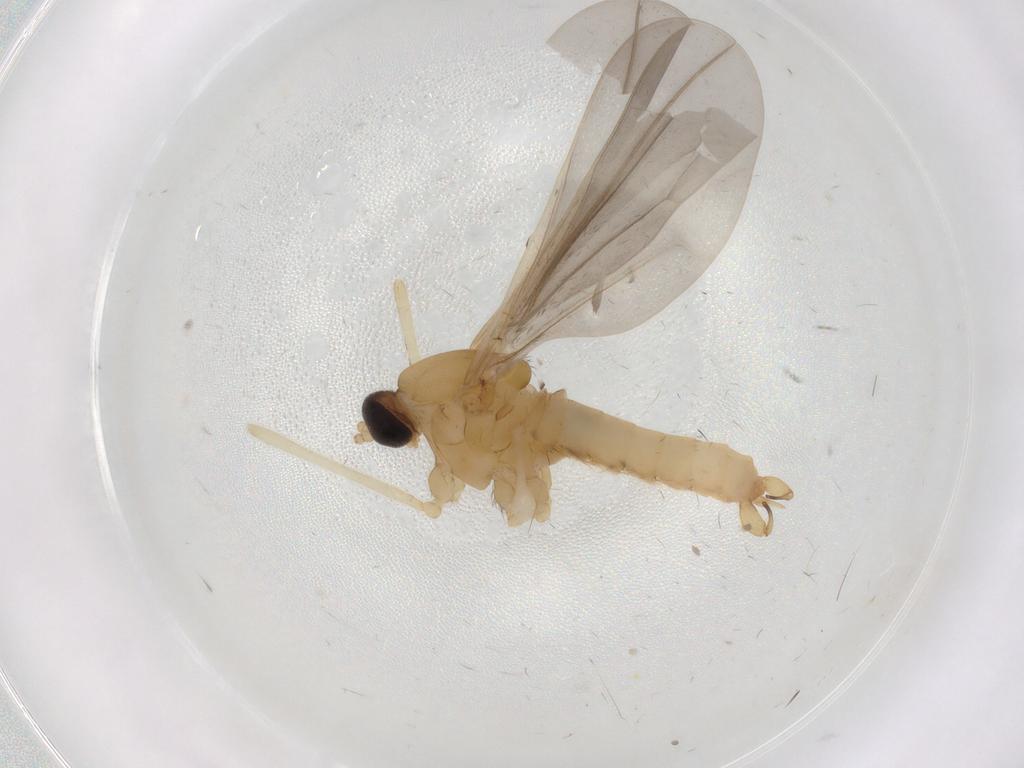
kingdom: Animalia
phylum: Arthropoda
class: Insecta
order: Diptera
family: Cecidomyiidae
